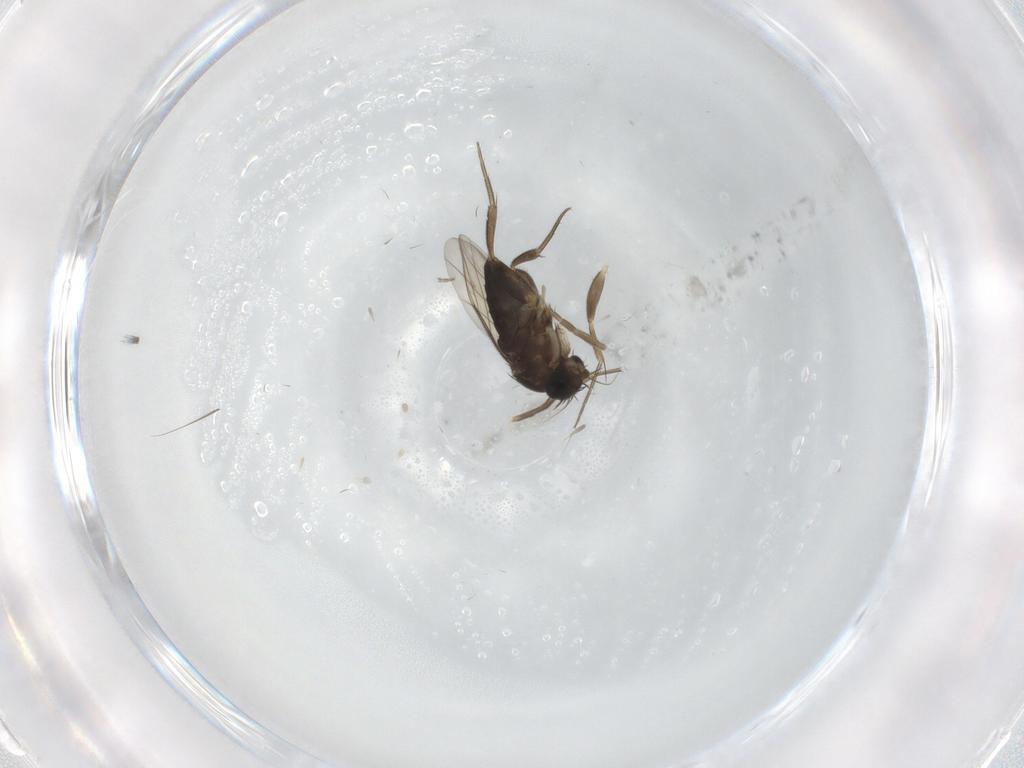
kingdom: Animalia
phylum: Arthropoda
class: Insecta
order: Diptera
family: Phoridae
